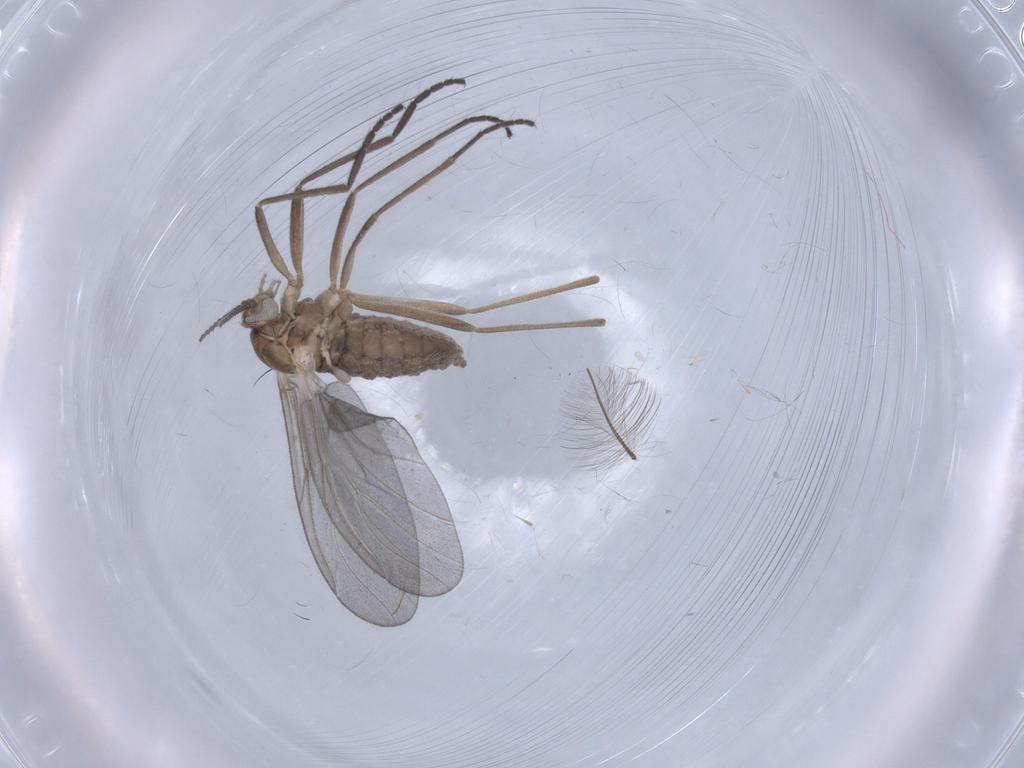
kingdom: Animalia
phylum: Arthropoda
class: Insecta
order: Diptera
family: Cecidomyiidae
